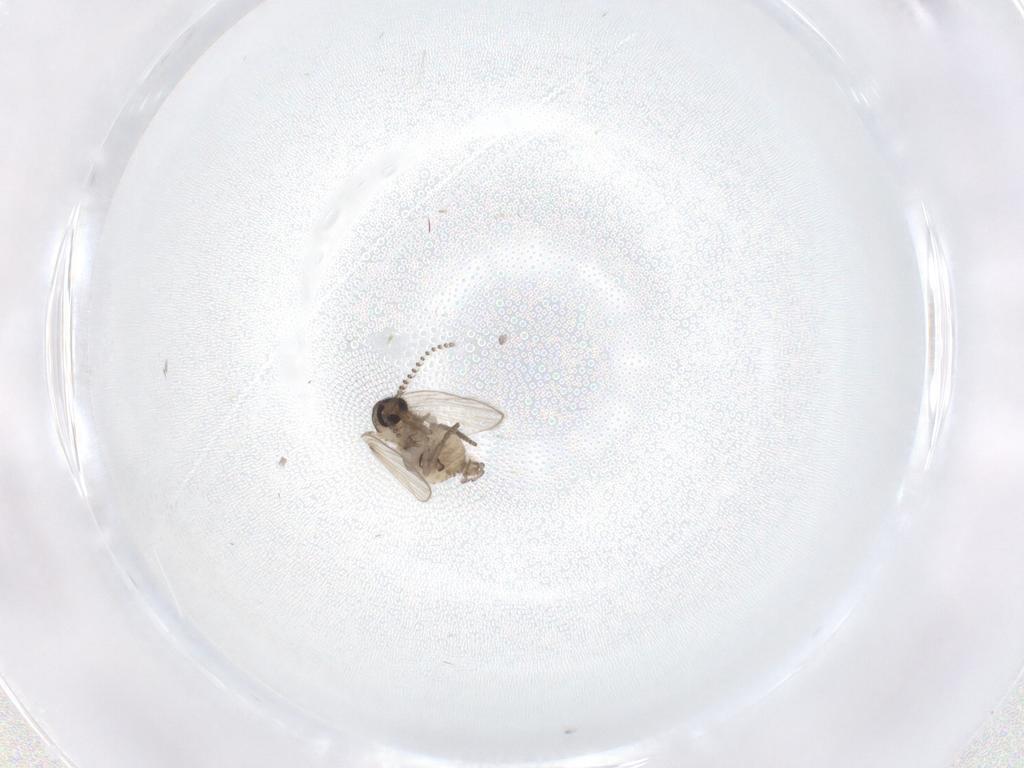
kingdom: Animalia
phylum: Arthropoda
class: Insecta
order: Diptera
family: Psychodidae
